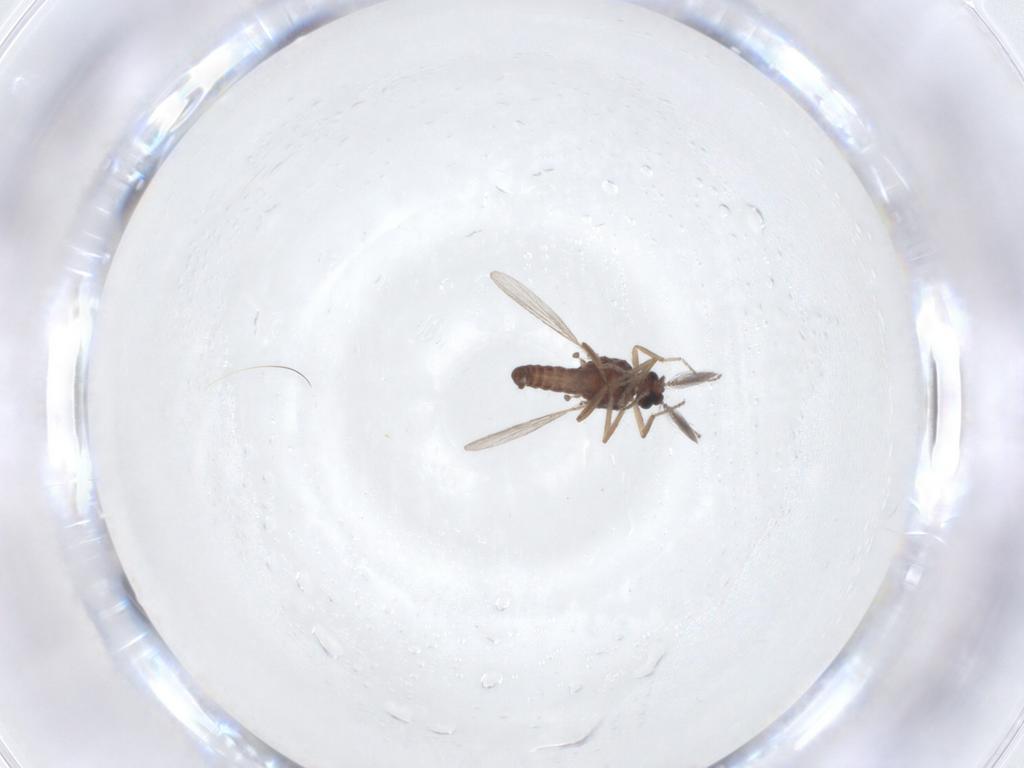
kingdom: Animalia
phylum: Arthropoda
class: Insecta
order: Diptera
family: Ceratopogonidae
